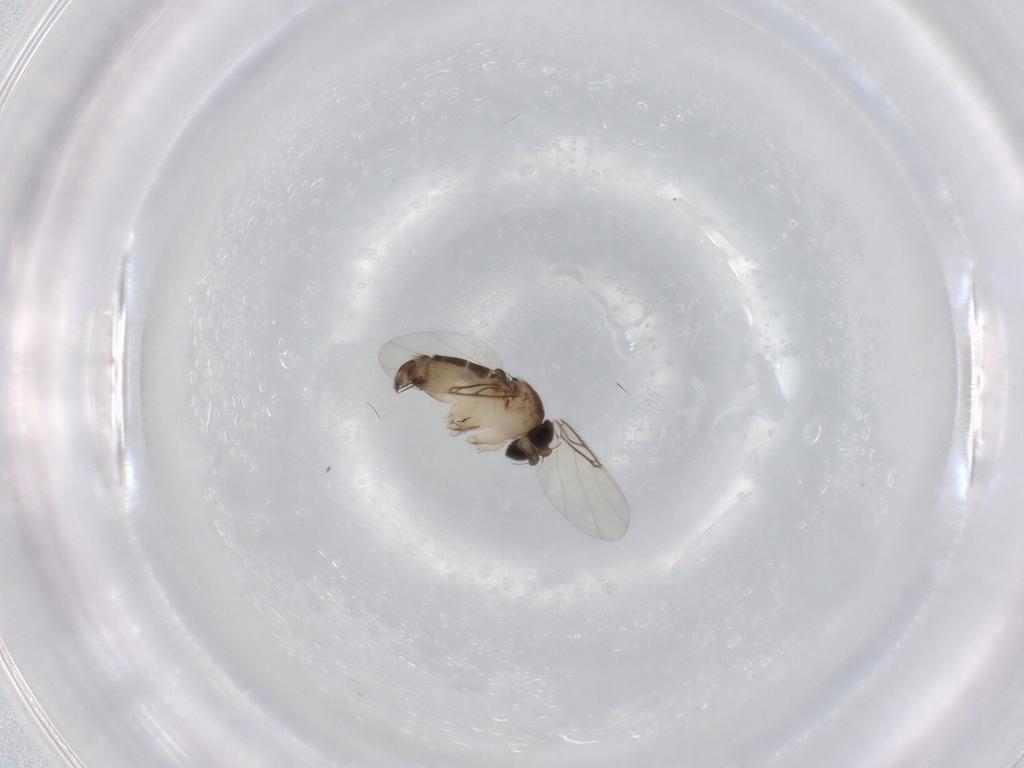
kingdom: Animalia
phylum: Arthropoda
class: Insecta
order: Diptera
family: Phoridae
